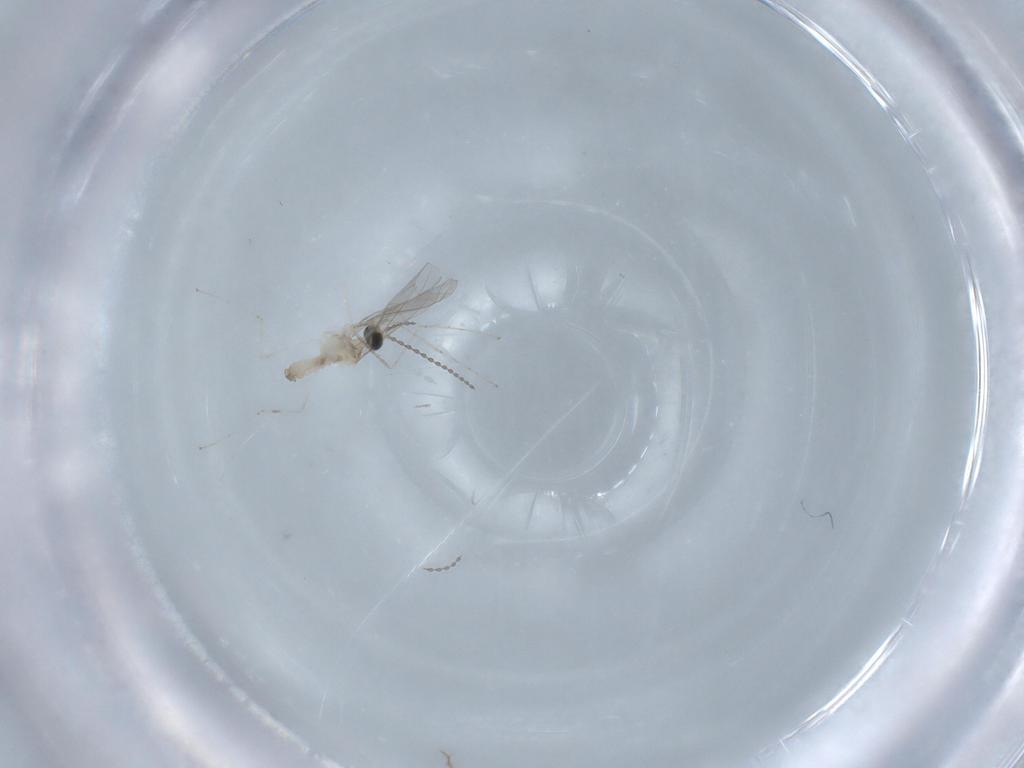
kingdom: Animalia
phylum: Arthropoda
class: Insecta
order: Diptera
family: Cecidomyiidae
